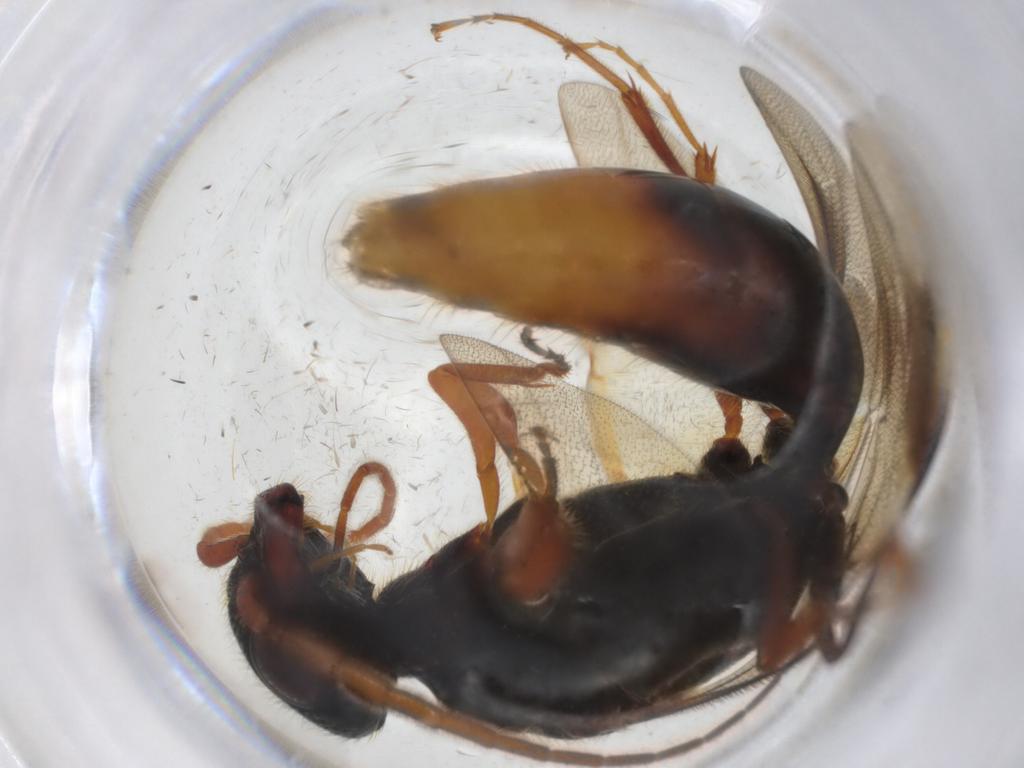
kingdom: Animalia
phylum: Arthropoda
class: Insecta
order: Hymenoptera
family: Bethylidae
